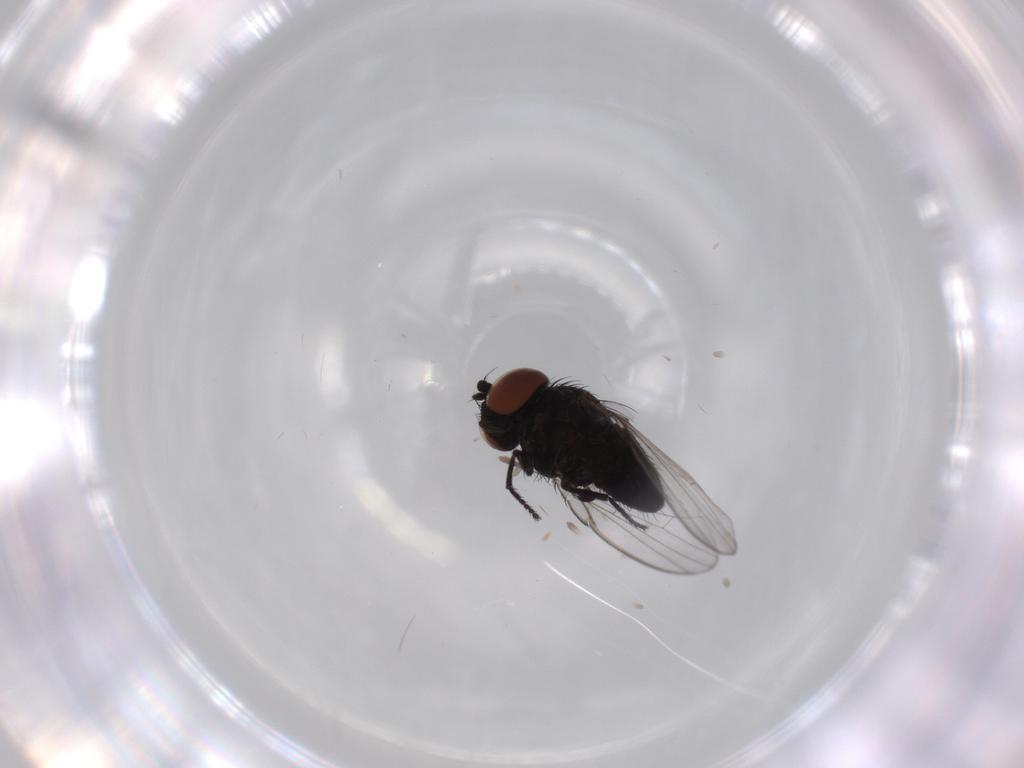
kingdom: Animalia
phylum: Arthropoda
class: Insecta
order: Diptera
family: Milichiidae
